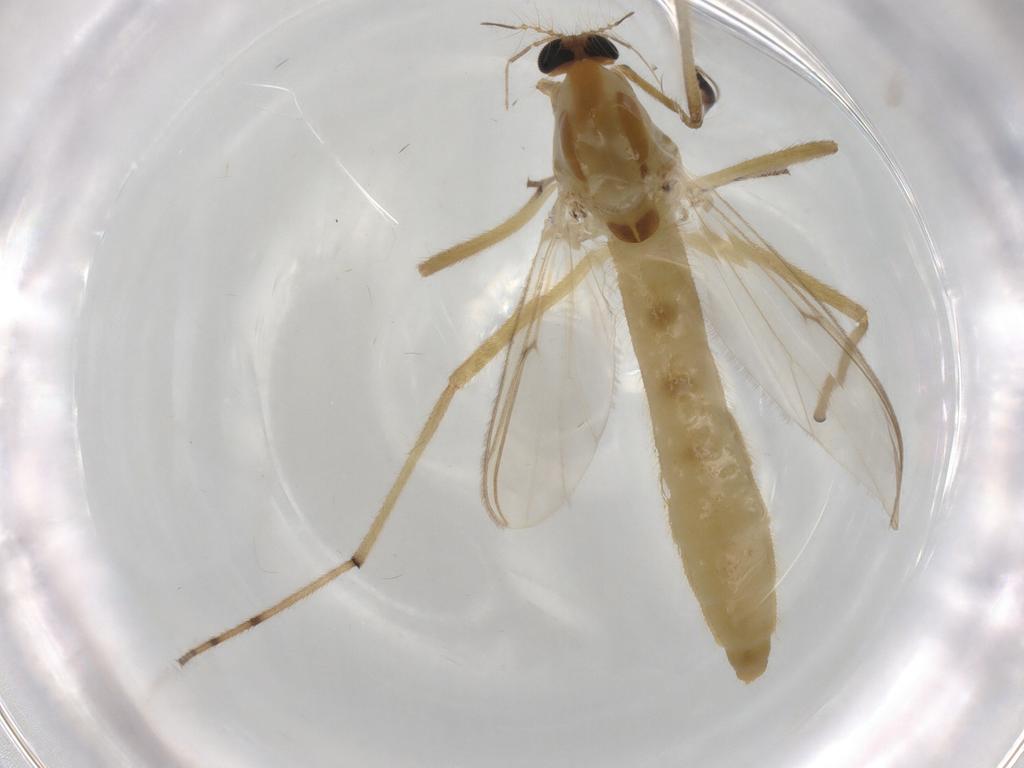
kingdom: Animalia
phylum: Arthropoda
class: Insecta
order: Diptera
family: Chironomidae
